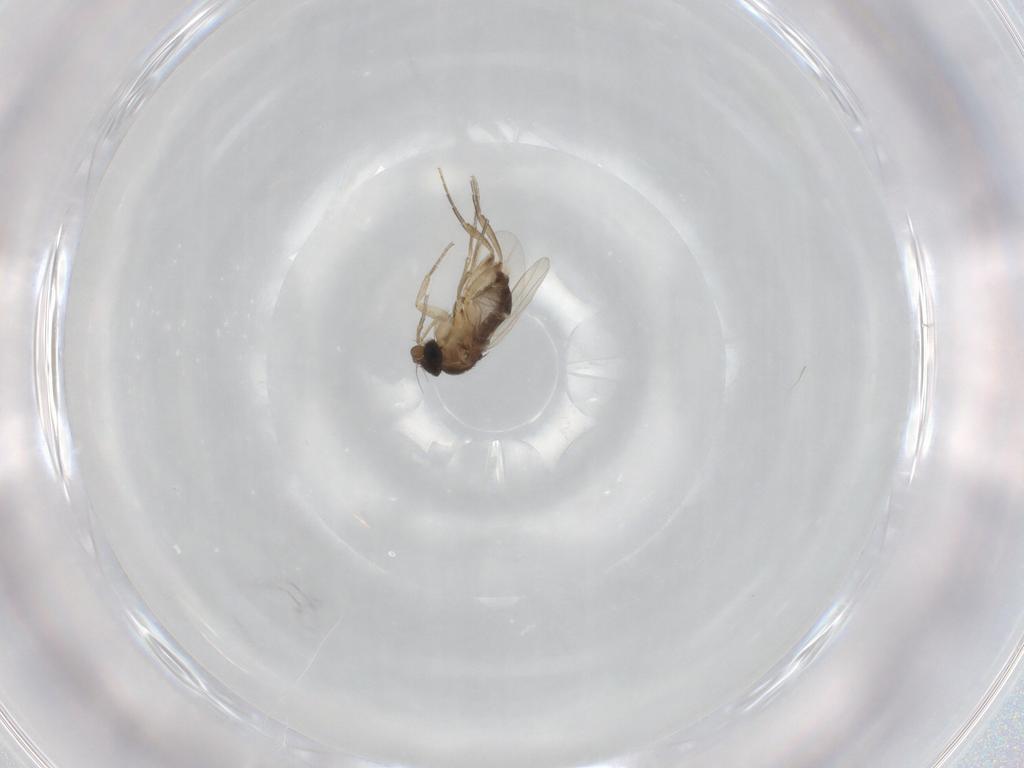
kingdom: Animalia
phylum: Arthropoda
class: Insecta
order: Diptera
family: Phoridae
